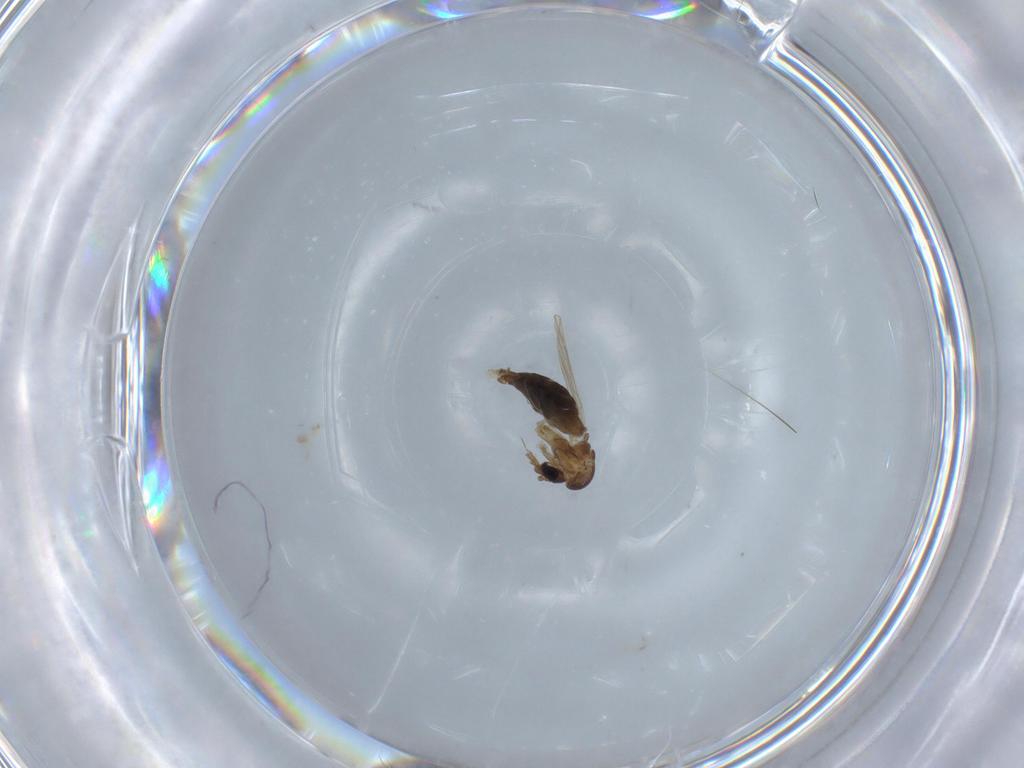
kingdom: Animalia
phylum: Arthropoda
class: Insecta
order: Diptera
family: Psychodidae
